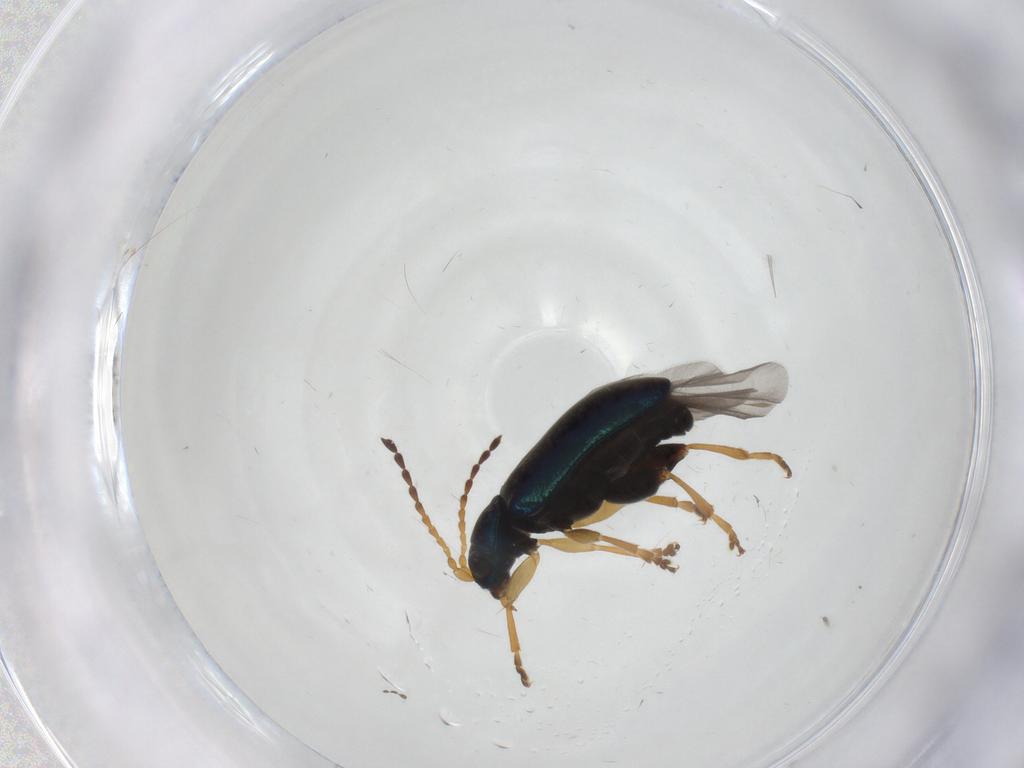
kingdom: Animalia
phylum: Arthropoda
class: Insecta
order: Coleoptera
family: Chrysomelidae
